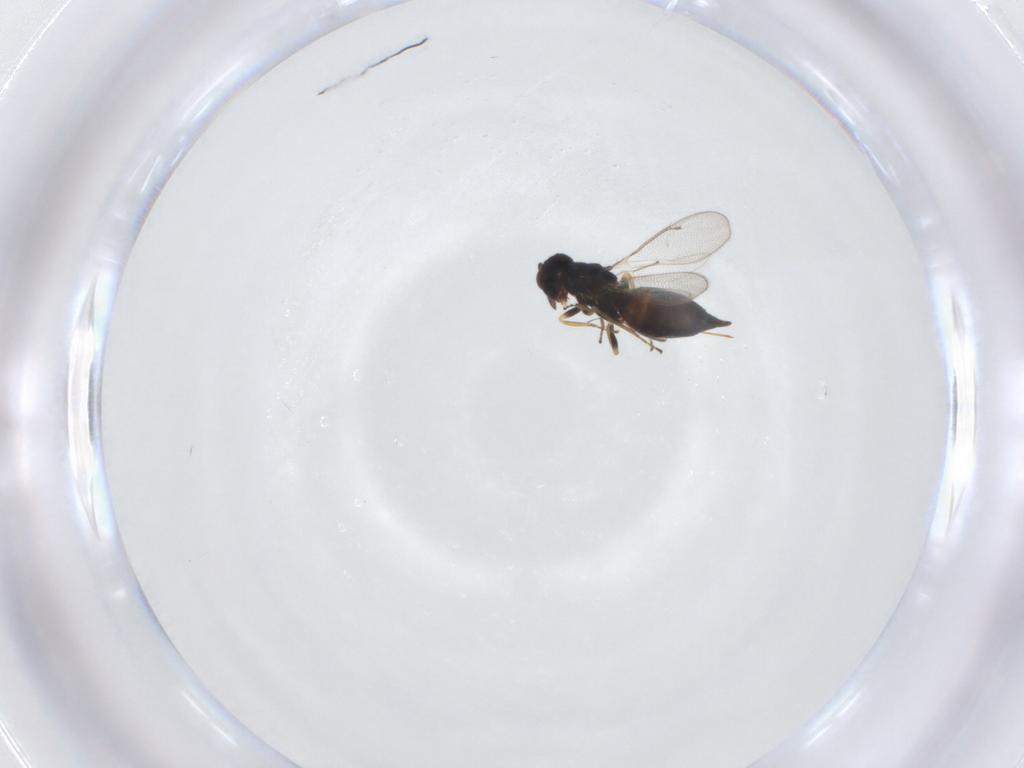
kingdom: Animalia
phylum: Arthropoda
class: Insecta
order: Hymenoptera
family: Eulophidae
